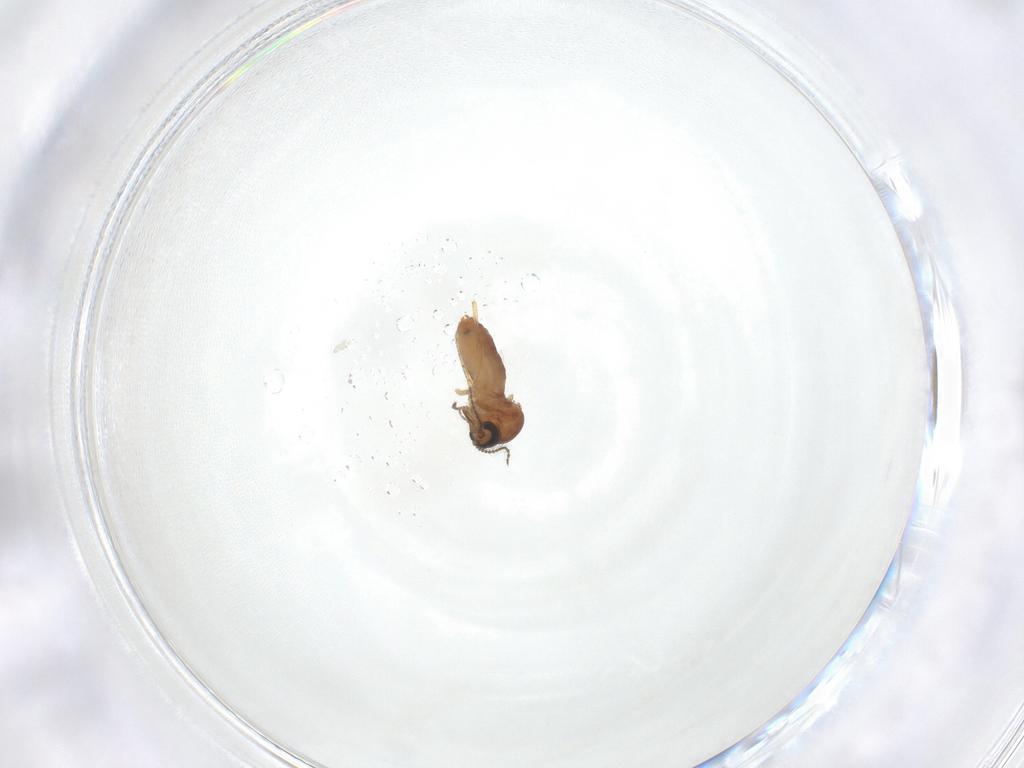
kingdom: Animalia
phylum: Arthropoda
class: Insecta
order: Diptera
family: Ceratopogonidae
